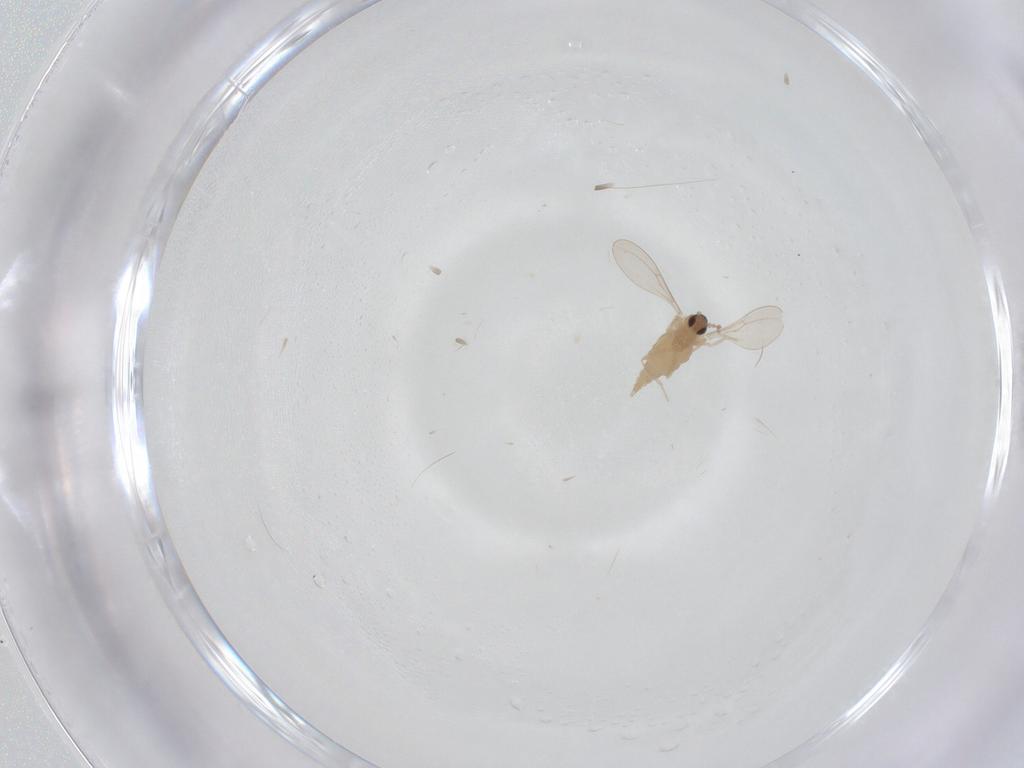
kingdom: Animalia
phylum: Arthropoda
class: Insecta
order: Diptera
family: Cecidomyiidae
